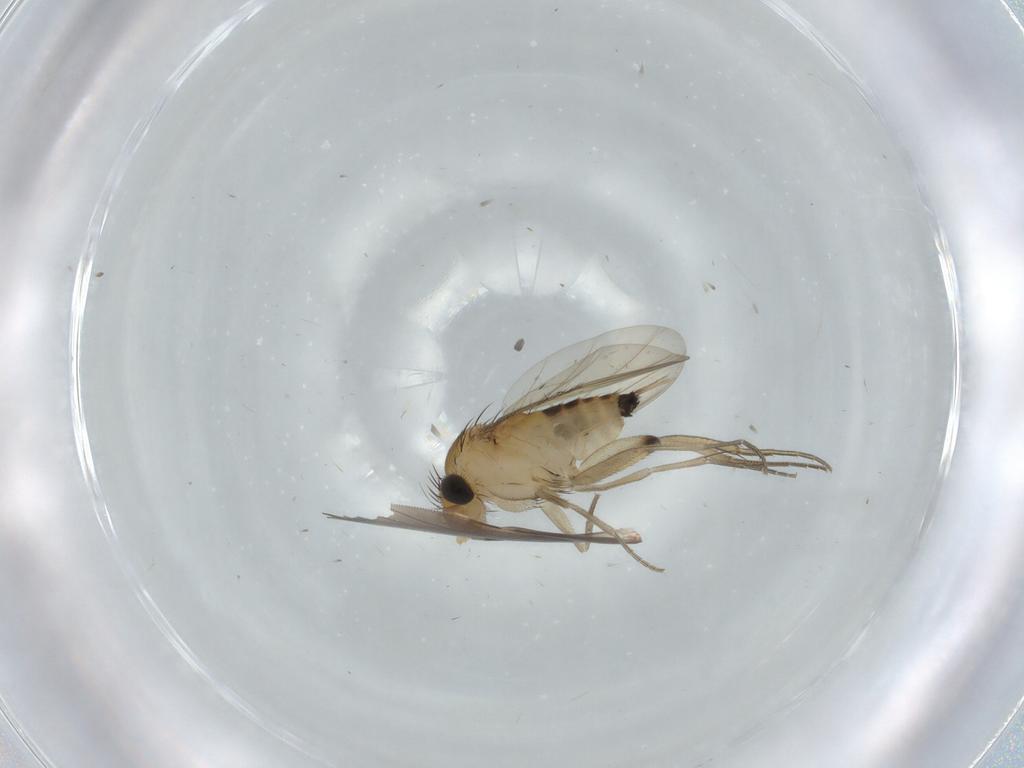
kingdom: Animalia
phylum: Arthropoda
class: Insecta
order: Diptera
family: Phoridae
